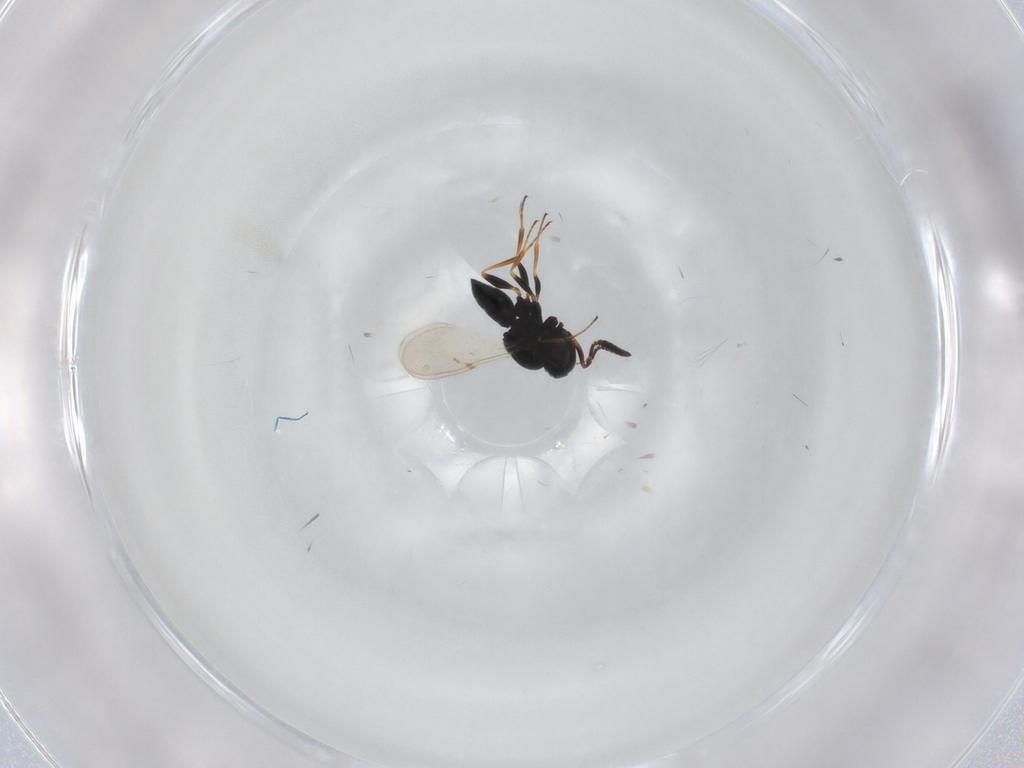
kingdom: Animalia
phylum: Arthropoda
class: Insecta
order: Coleoptera
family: Curculionidae
